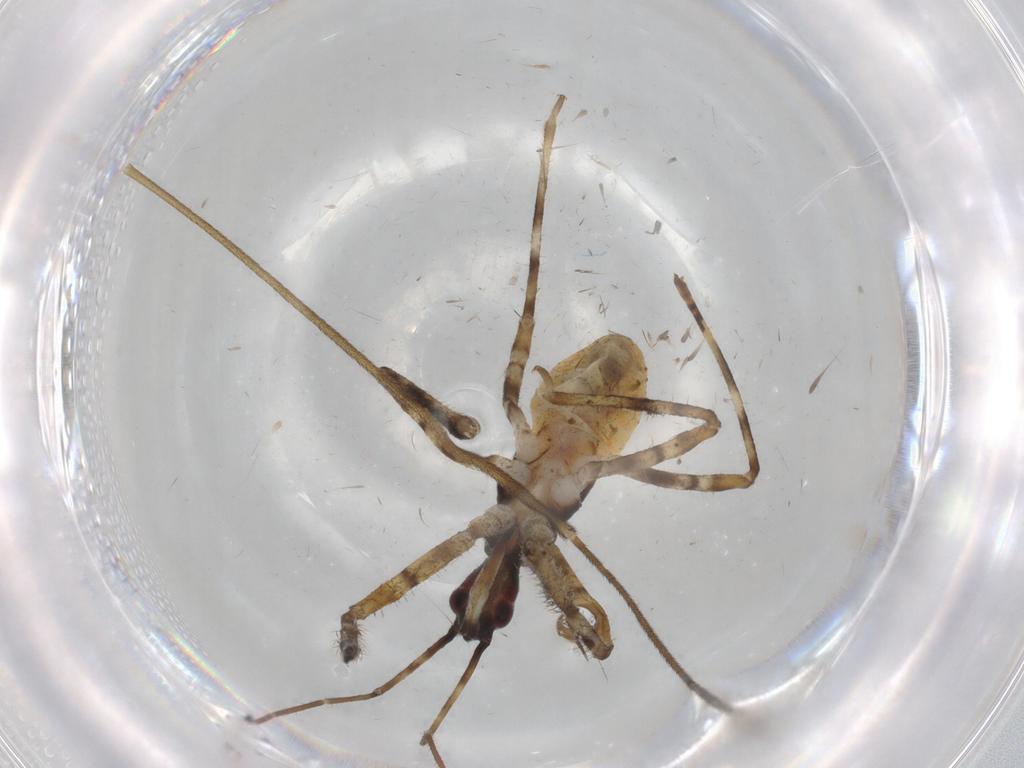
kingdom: Animalia
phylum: Arthropoda
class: Insecta
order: Hemiptera
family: Reduviidae
